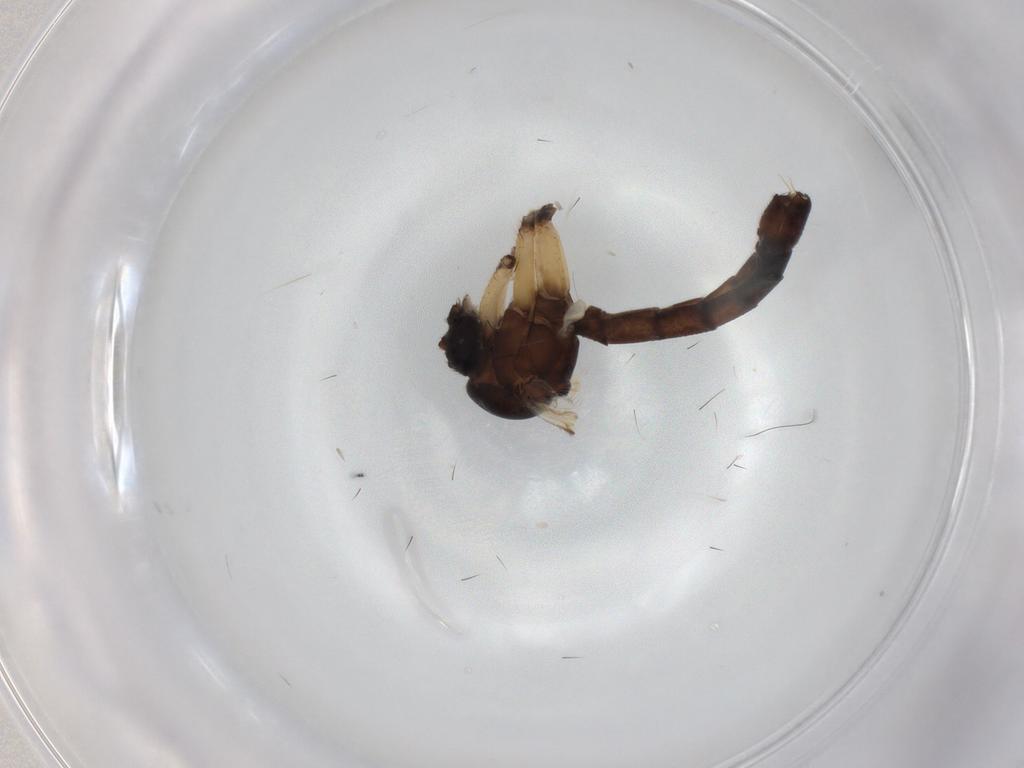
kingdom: Animalia
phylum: Arthropoda
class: Insecta
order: Diptera
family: Mycetophilidae
